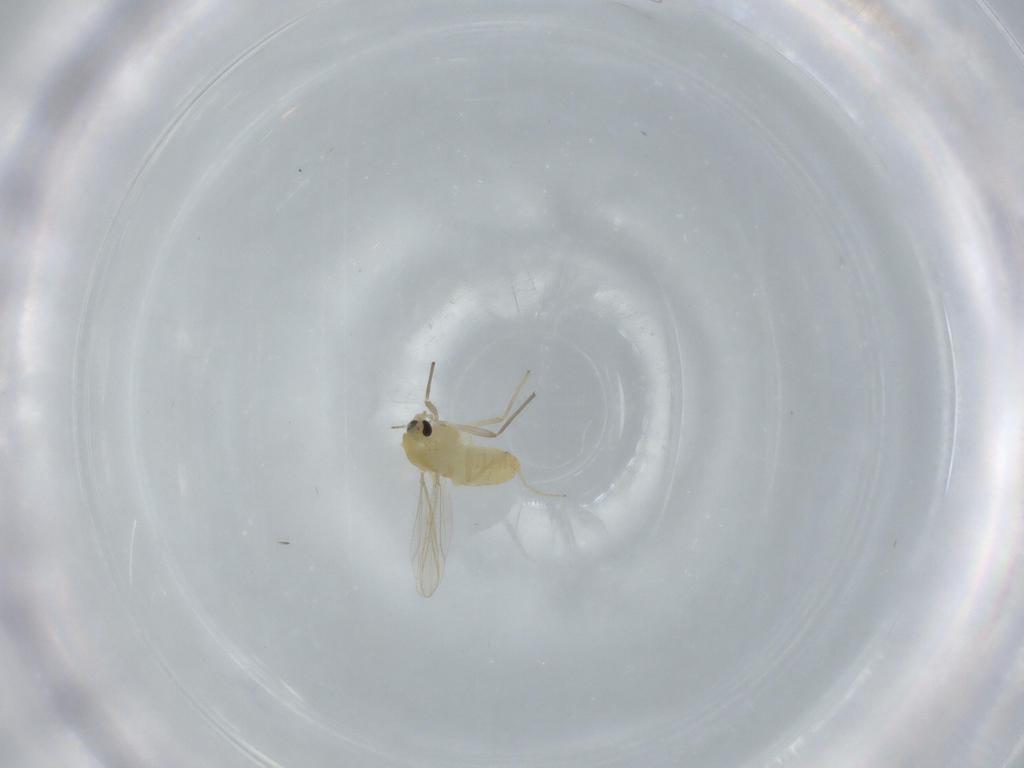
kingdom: Animalia
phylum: Arthropoda
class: Insecta
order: Diptera
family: Chironomidae
